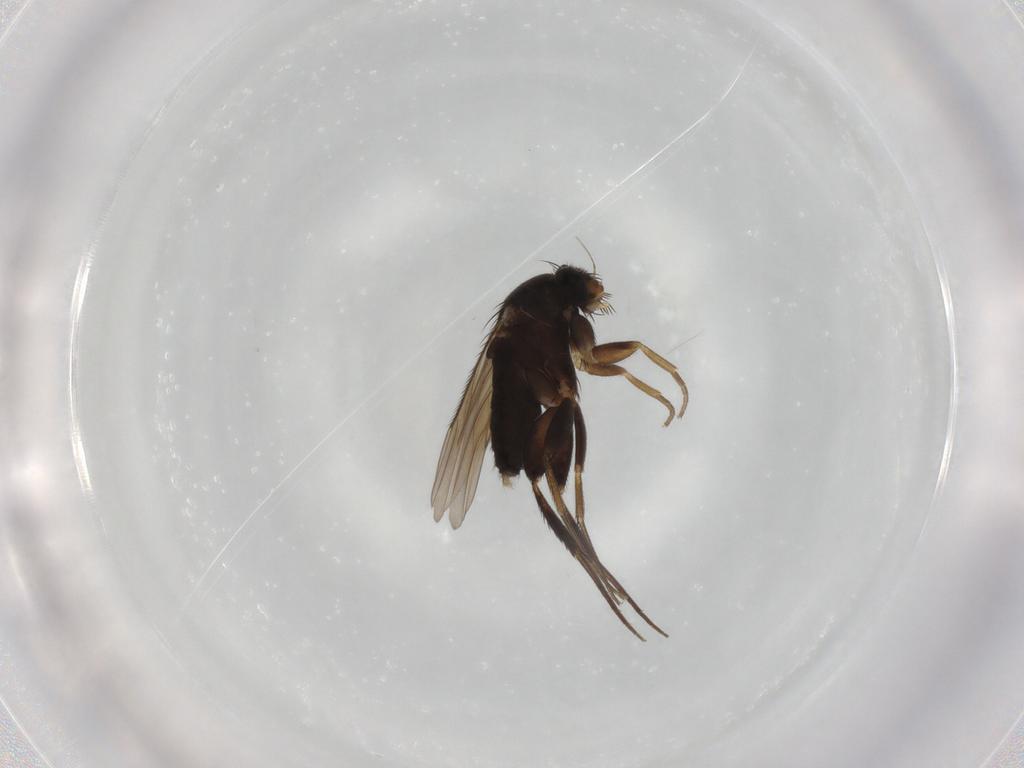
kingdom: Animalia
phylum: Arthropoda
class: Insecta
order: Diptera
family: Phoridae
